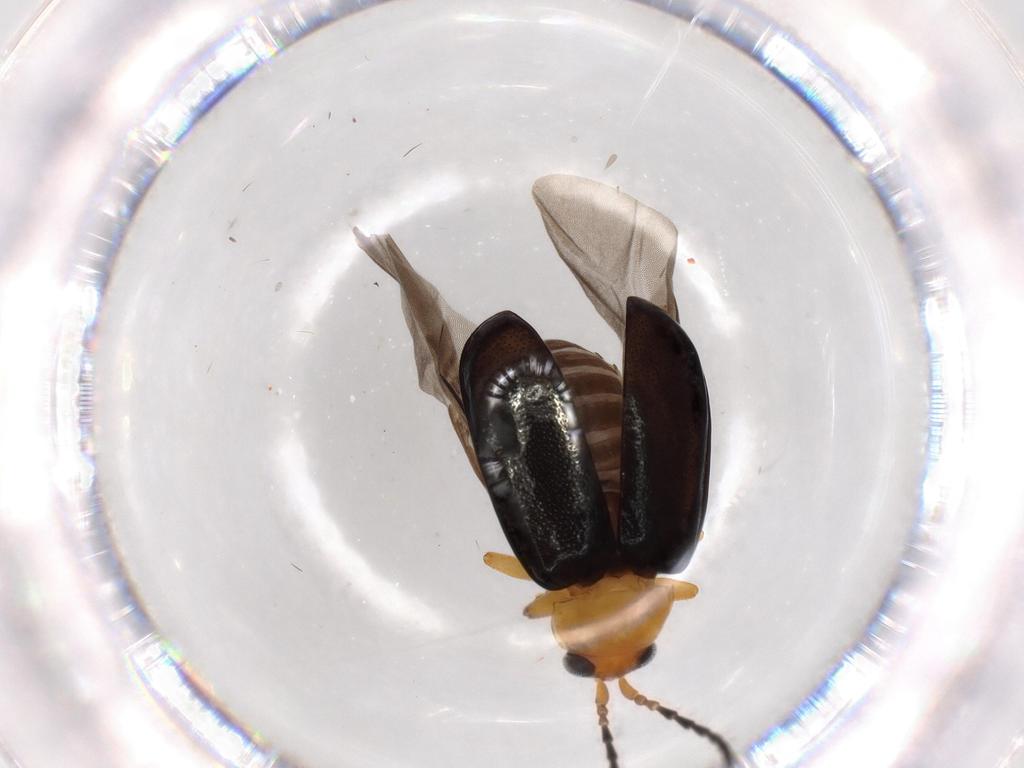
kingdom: Animalia
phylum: Arthropoda
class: Insecta
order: Coleoptera
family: Chrysomelidae
